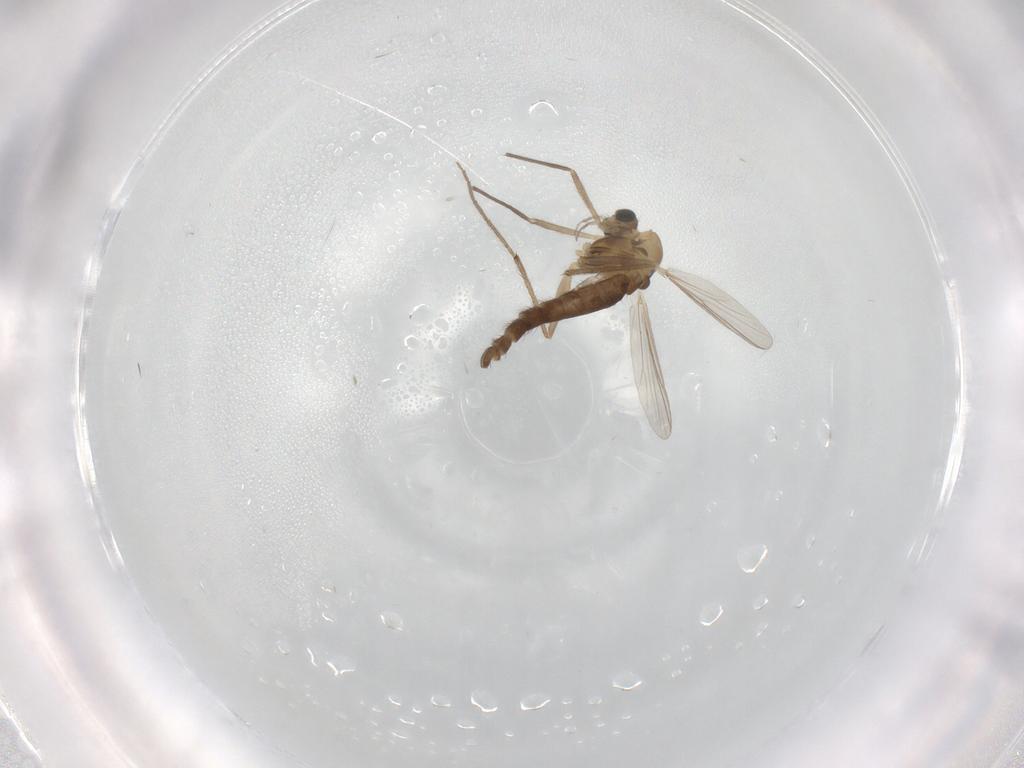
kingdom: Animalia
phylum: Arthropoda
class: Insecta
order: Diptera
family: Chironomidae
